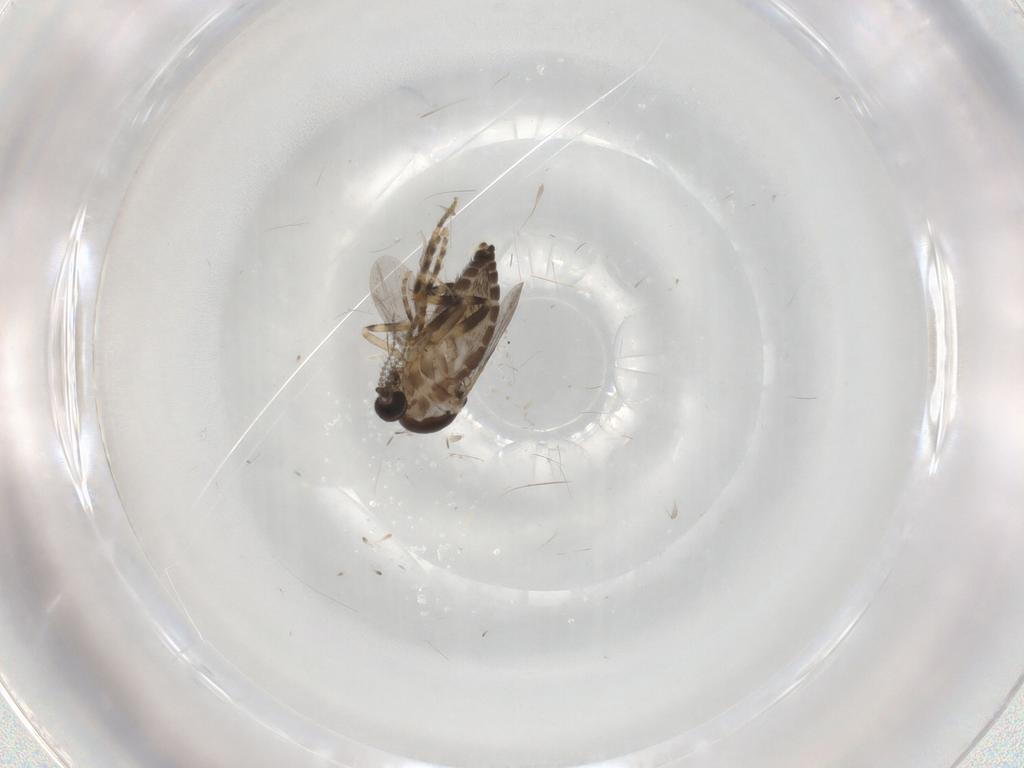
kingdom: Animalia
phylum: Arthropoda
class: Insecta
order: Diptera
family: Ceratopogonidae
